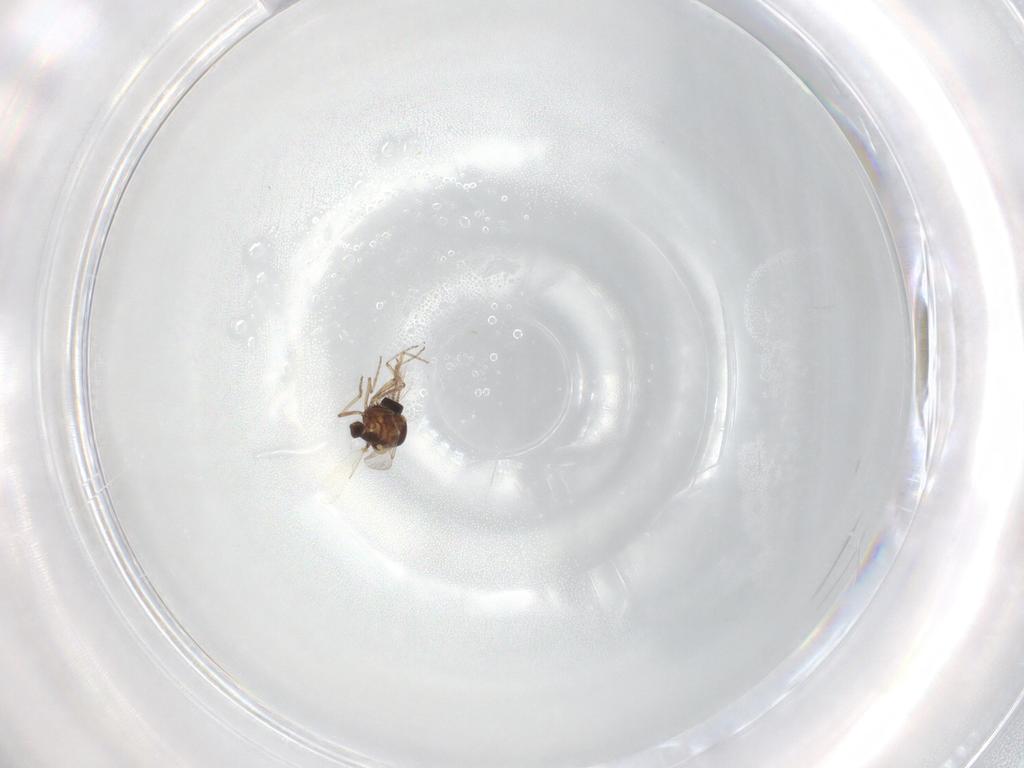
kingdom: Animalia
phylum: Arthropoda
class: Insecta
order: Diptera
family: Ceratopogonidae
